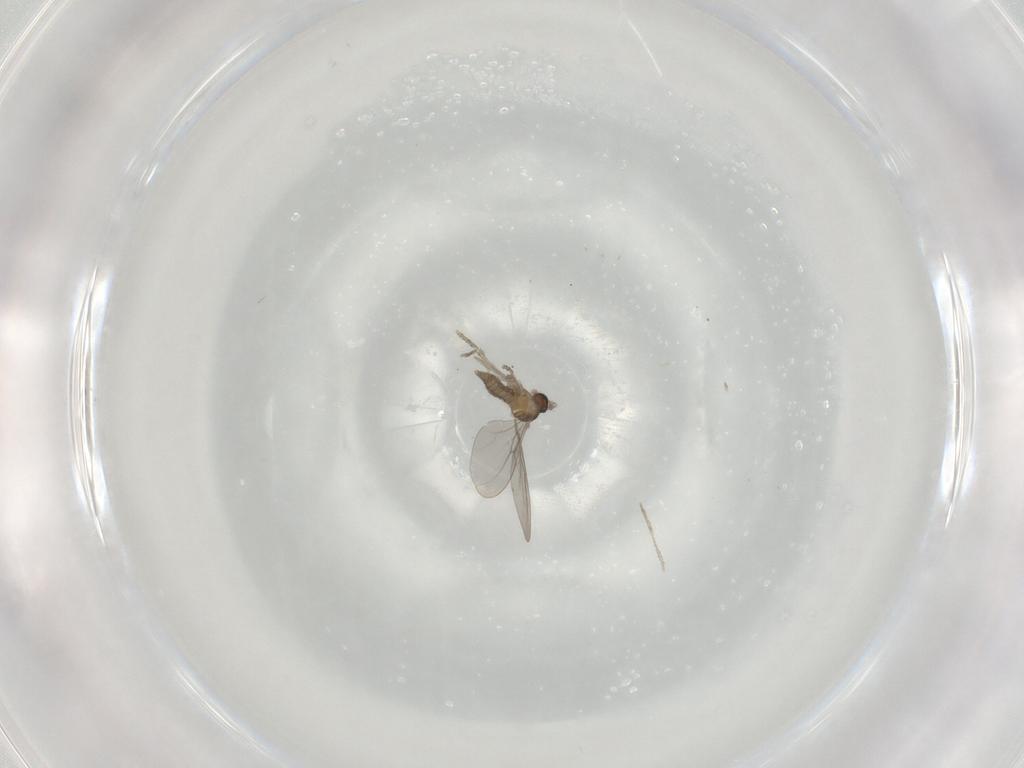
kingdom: Animalia
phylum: Arthropoda
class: Insecta
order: Diptera
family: Cecidomyiidae
